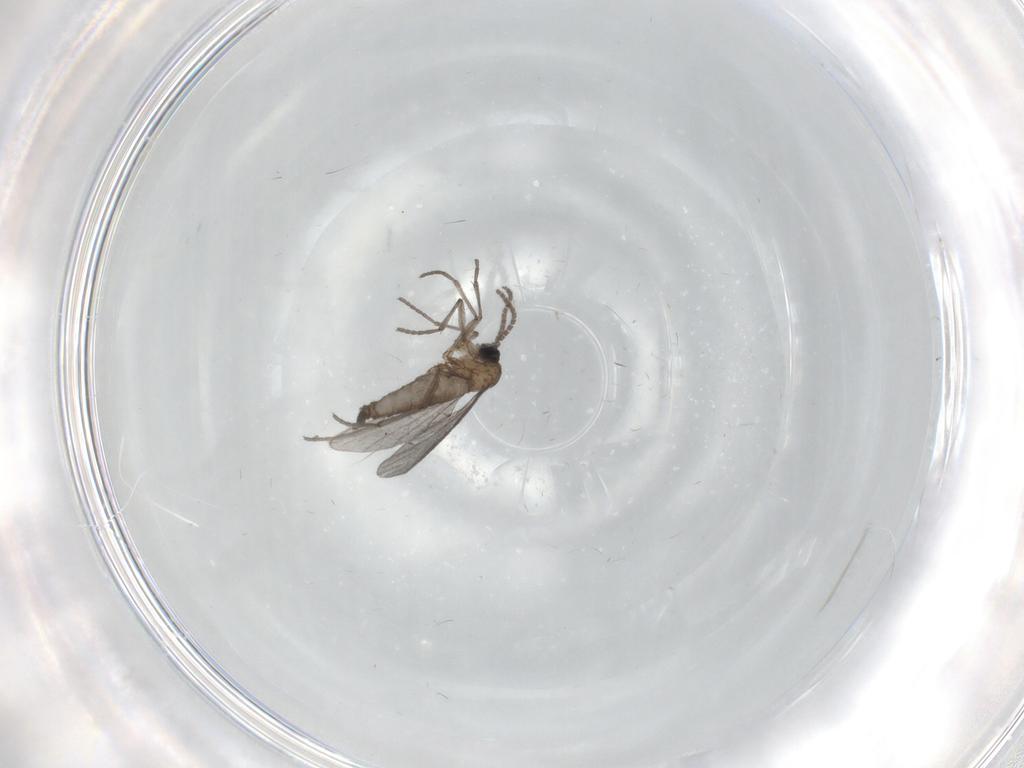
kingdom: Animalia
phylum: Arthropoda
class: Insecta
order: Diptera
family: Sciaridae
